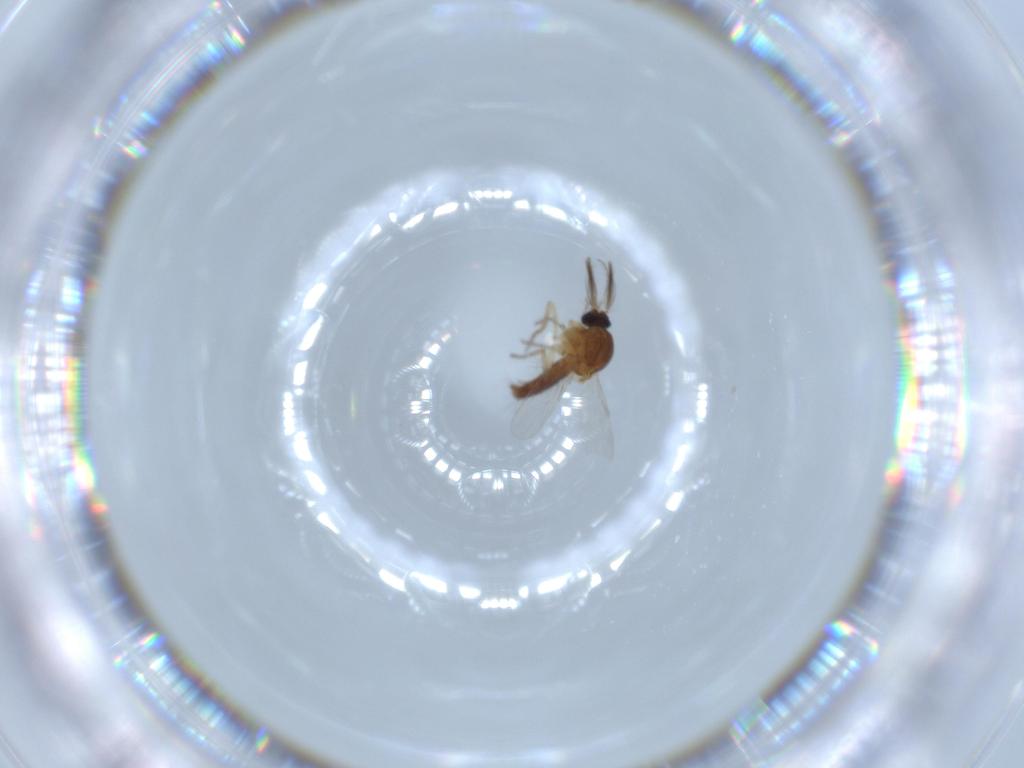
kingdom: Animalia
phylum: Arthropoda
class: Insecta
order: Diptera
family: Ceratopogonidae
